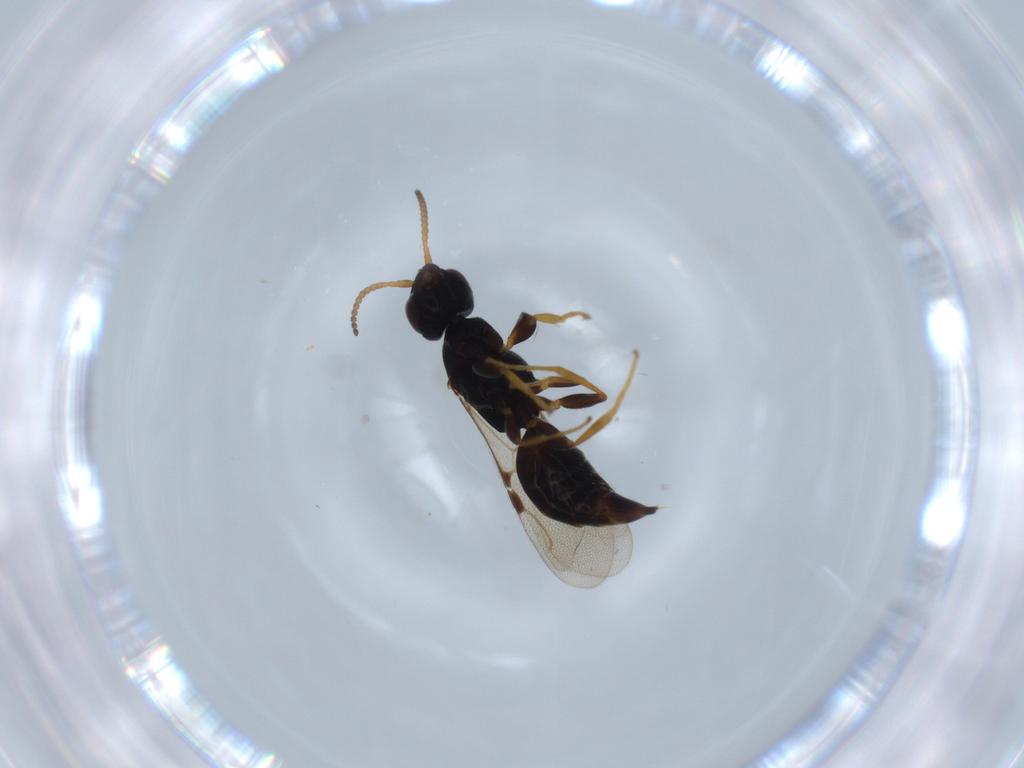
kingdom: Animalia
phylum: Arthropoda
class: Insecta
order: Hymenoptera
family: Bethylidae
